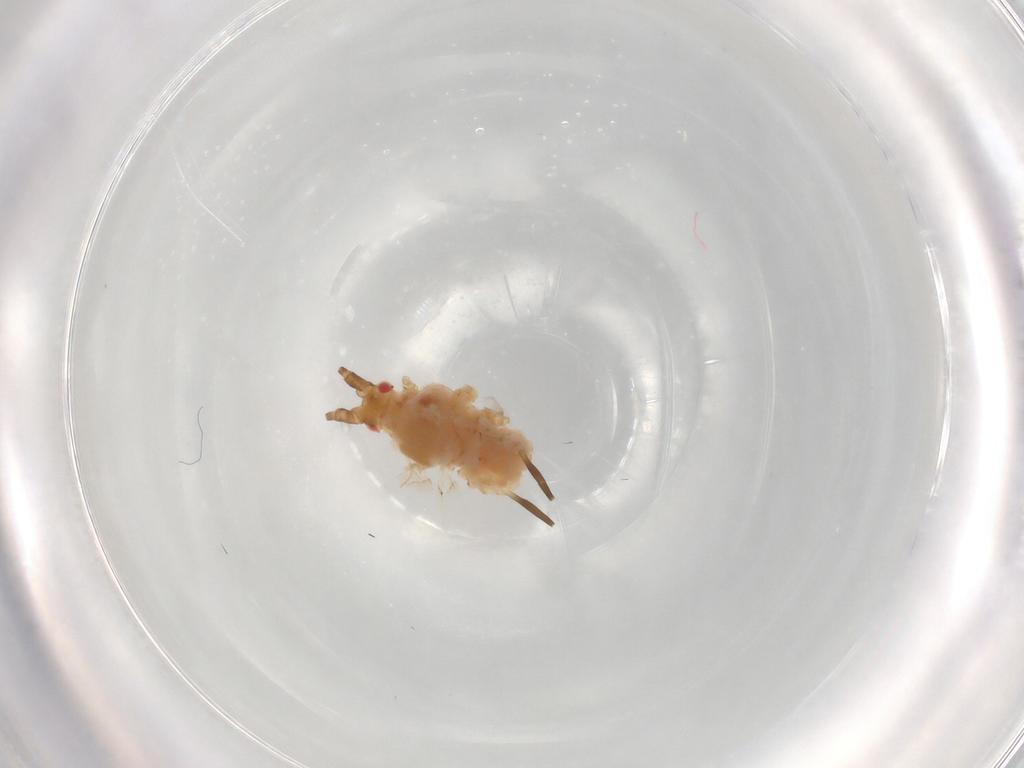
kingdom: Animalia
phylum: Arthropoda
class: Insecta
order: Hemiptera
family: Aphididae
